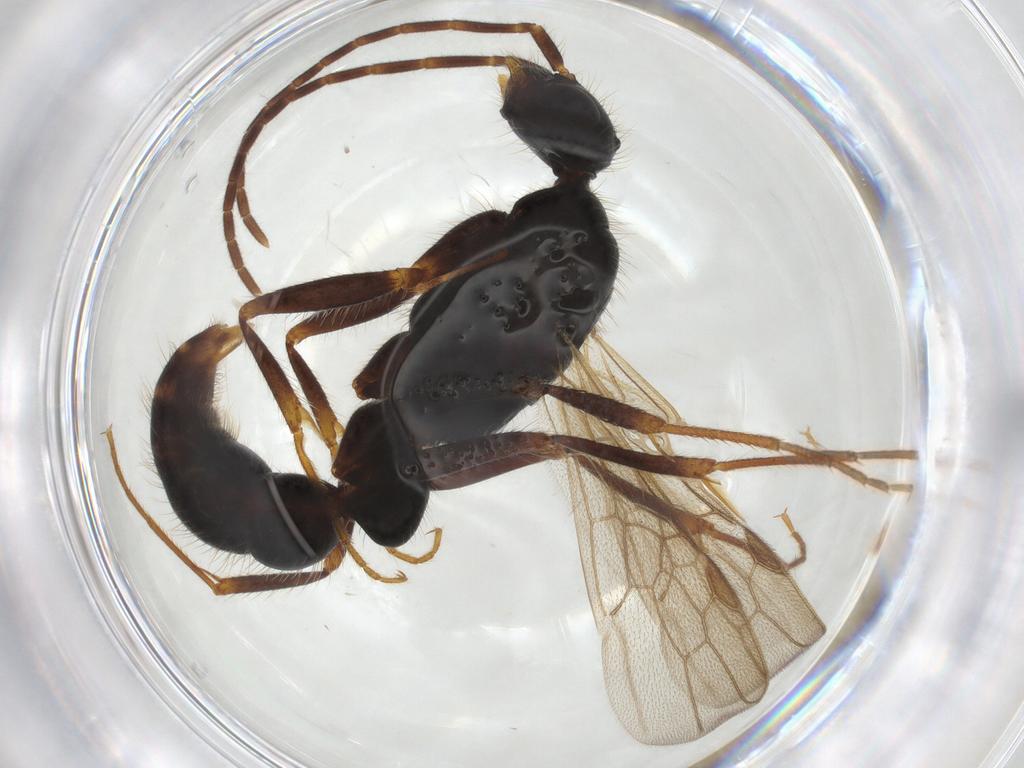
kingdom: Animalia
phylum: Arthropoda
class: Insecta
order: Hymenoptera
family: Formicidae
